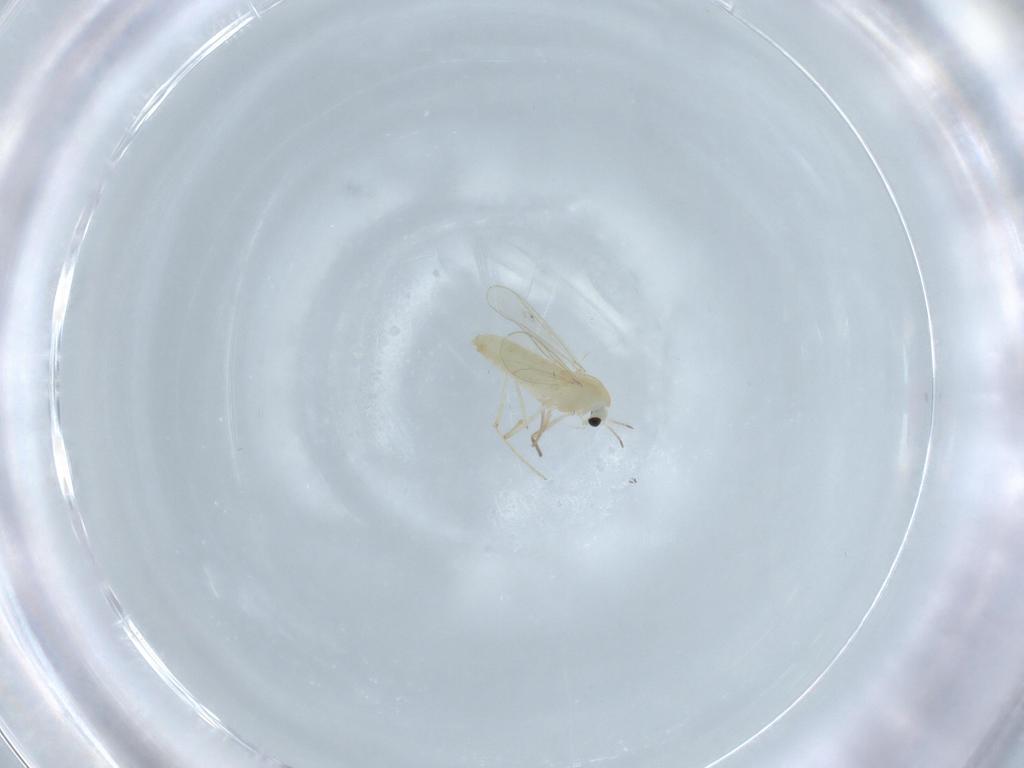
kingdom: Animalia
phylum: Arthropoda
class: Insecta
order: Diptera
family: Chironomidae
